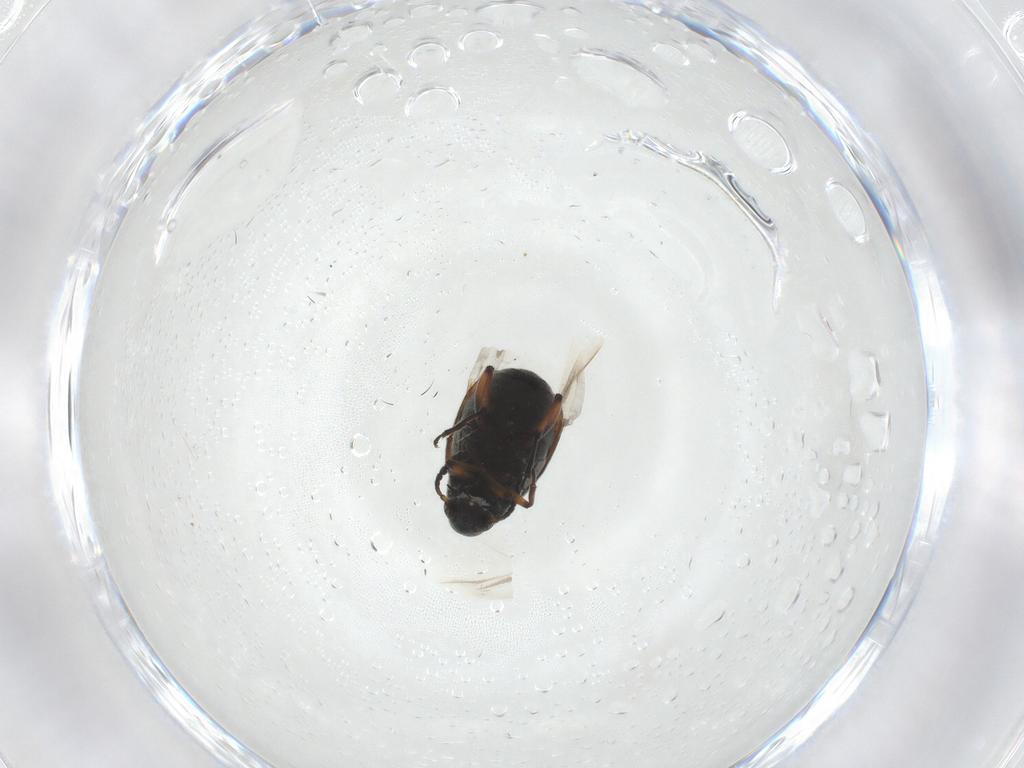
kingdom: Animalia
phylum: Arthropoda
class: Insecta
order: Coleoptera
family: Chrysomelidae
